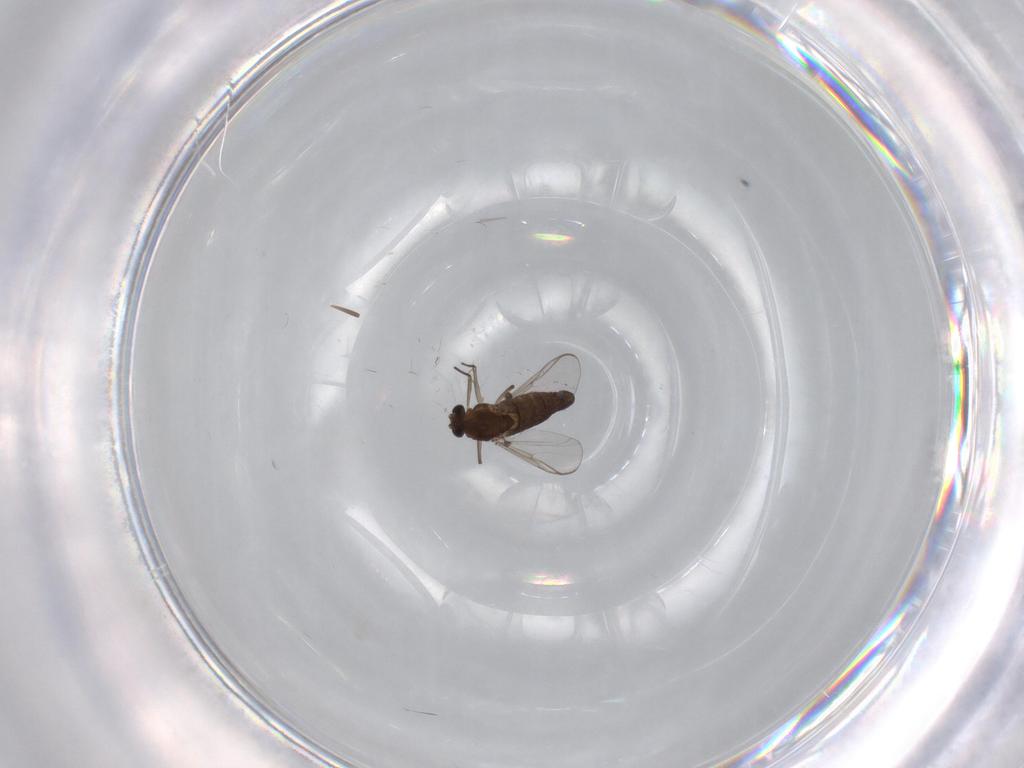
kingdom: Animalia
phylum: Arthropoda
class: Insecta
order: Diptera
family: Chironomidae
